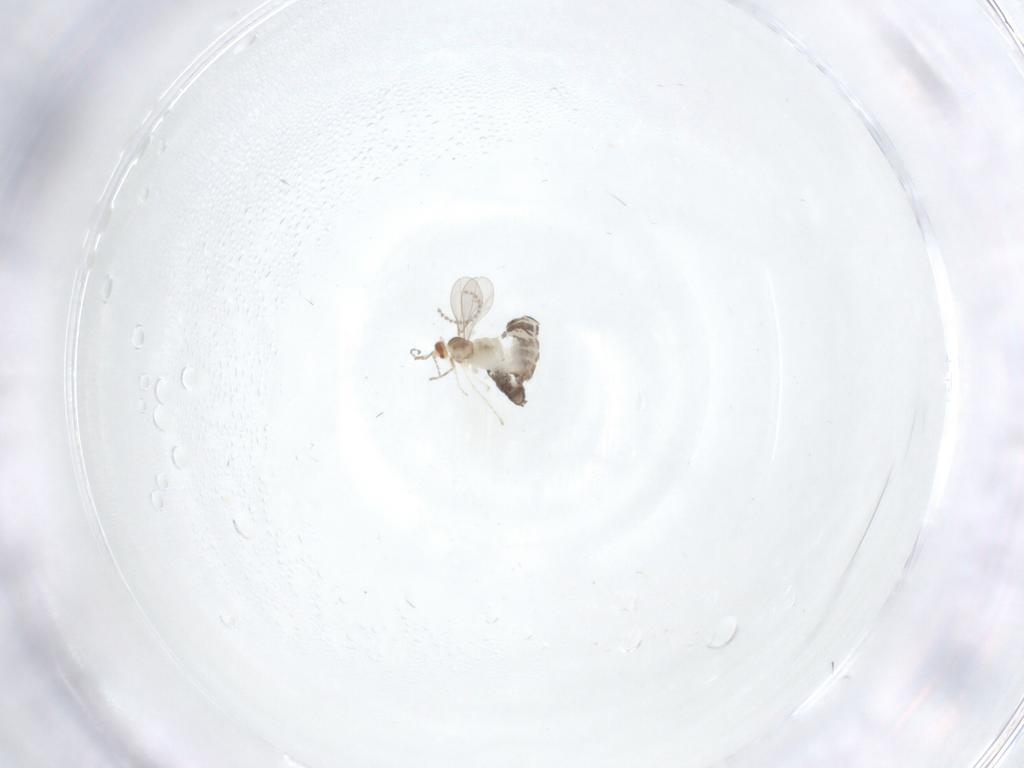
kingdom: Animalia
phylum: Arthropoda
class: Insecta
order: Diptera
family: Chironomidae
